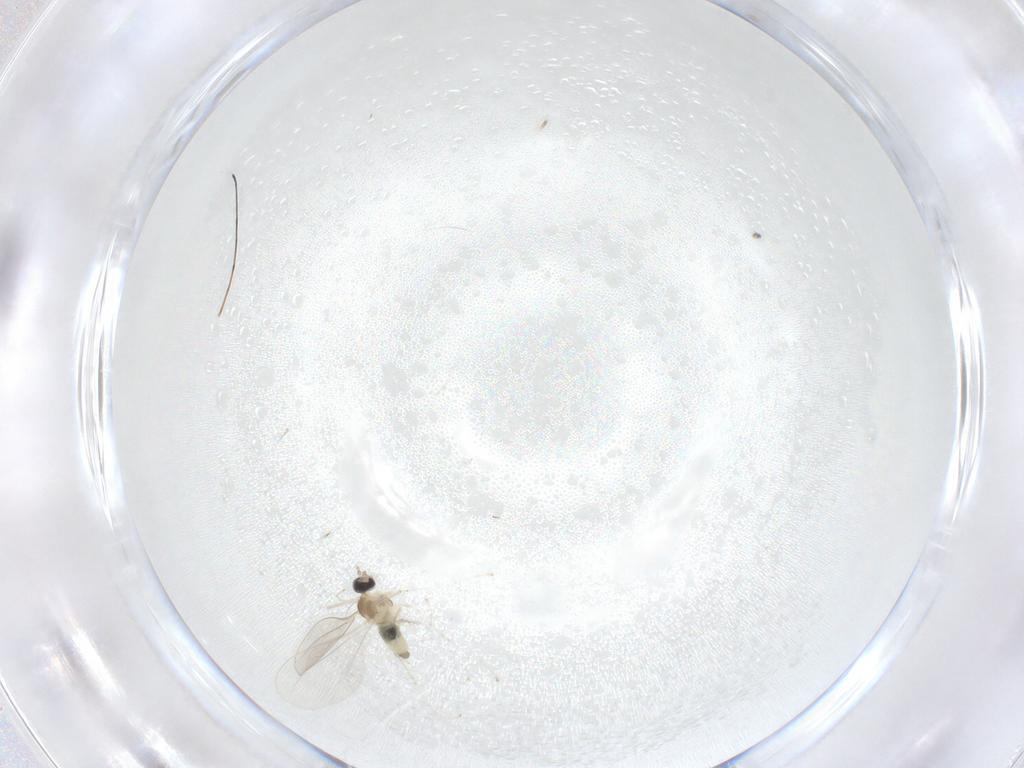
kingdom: Animalia
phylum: Arthropoda
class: Insecta
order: Diptera
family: Cecidomyiidae
